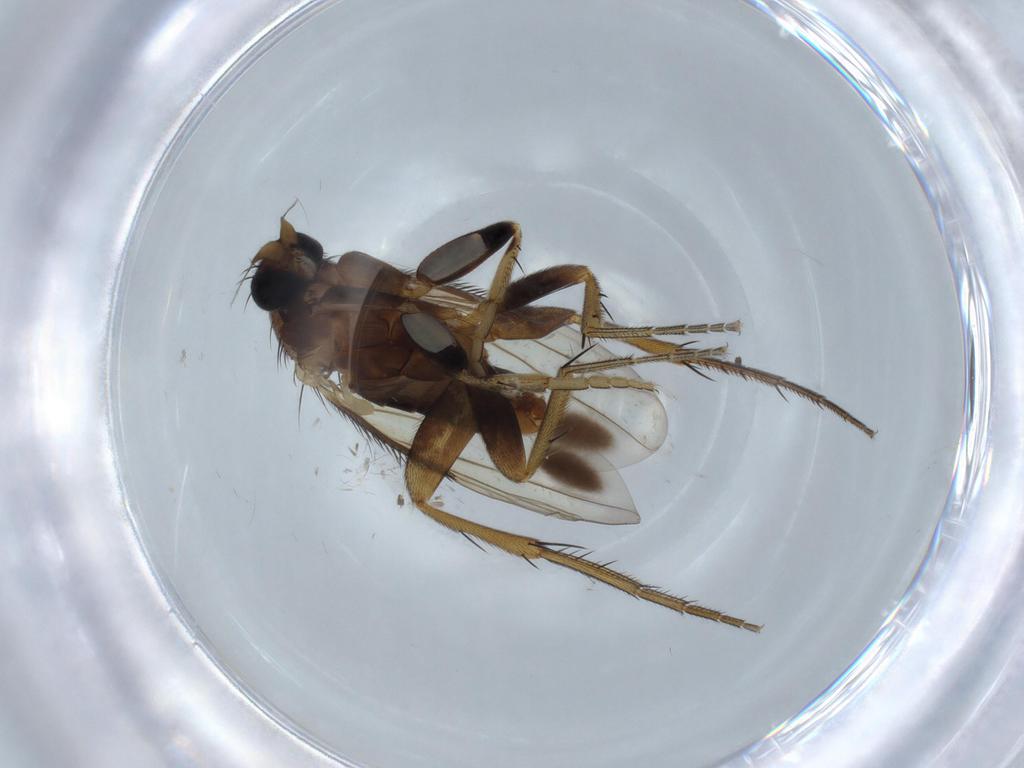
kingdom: Animalia
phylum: Arthropoda
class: Insecta
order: Diptera
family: Phoridae
